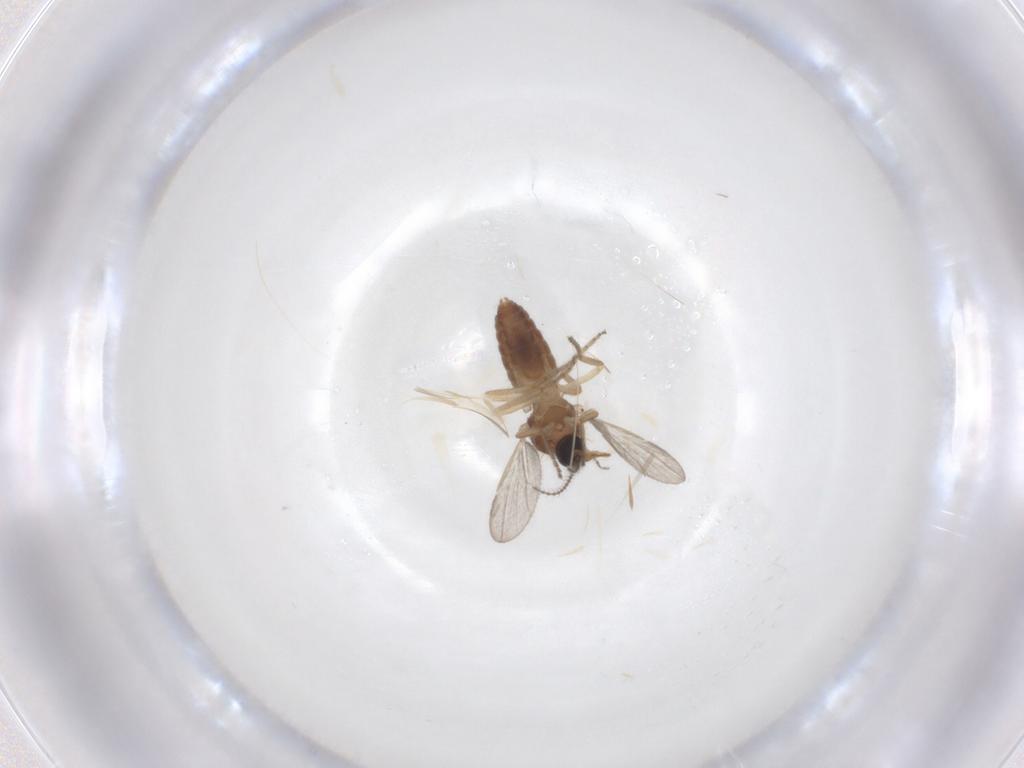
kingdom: Animalia
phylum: Arthropoda
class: Insecta
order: Diptera
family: Ceratopogonidae
